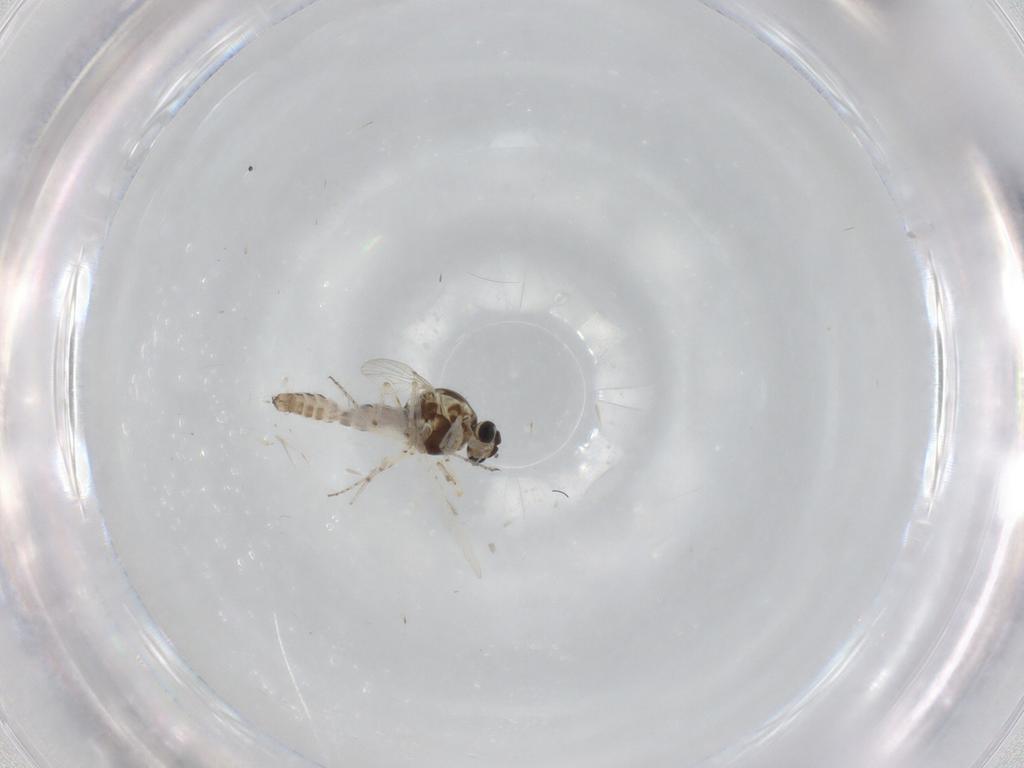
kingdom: Animalia
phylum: Arthropoda
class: Insecta
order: Diptera
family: Ceratopogonidae
